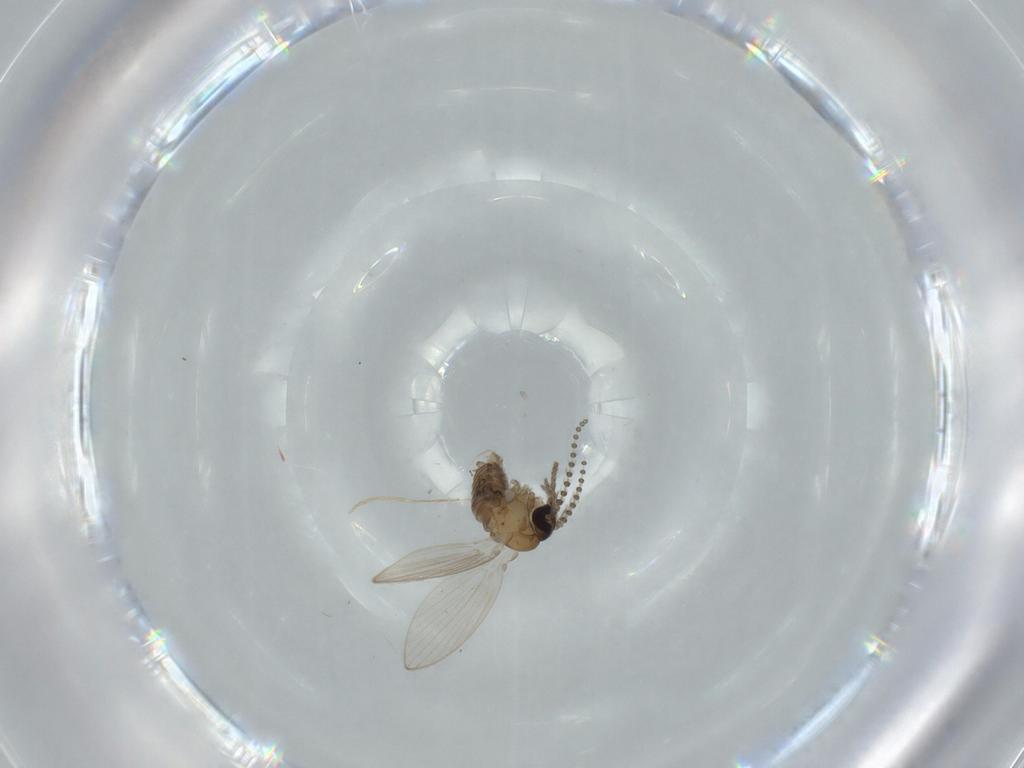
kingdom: Animalia
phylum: Arthropoda
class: Insecta
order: Diptera
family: Psychodidae
